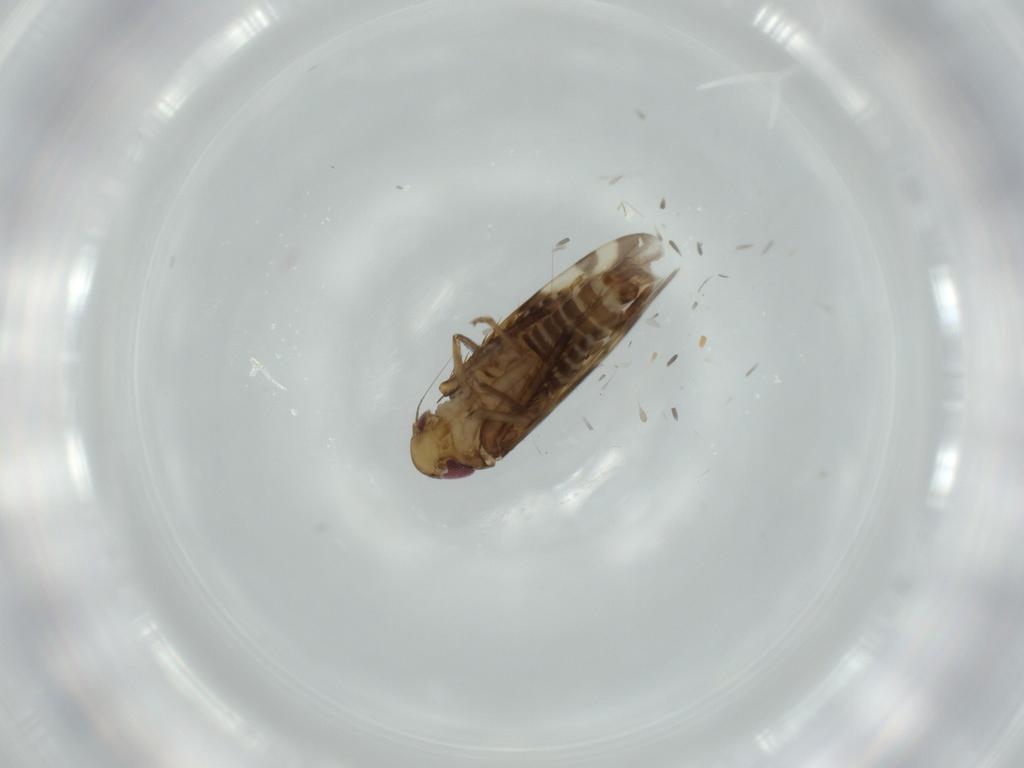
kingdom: Animalia
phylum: Arthropoda
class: Insecta
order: Hemiptera
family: Cicadellidae
